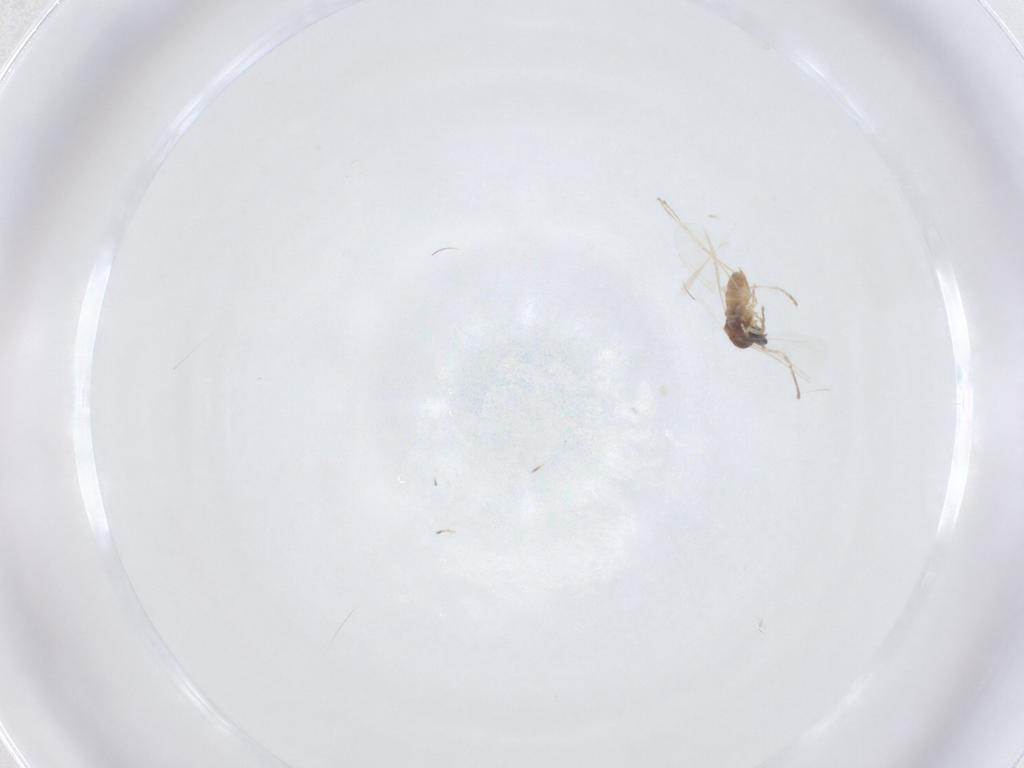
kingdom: Animalia
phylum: Arthropoda
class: Insecta
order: Diptera
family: Cecidomyiidae
